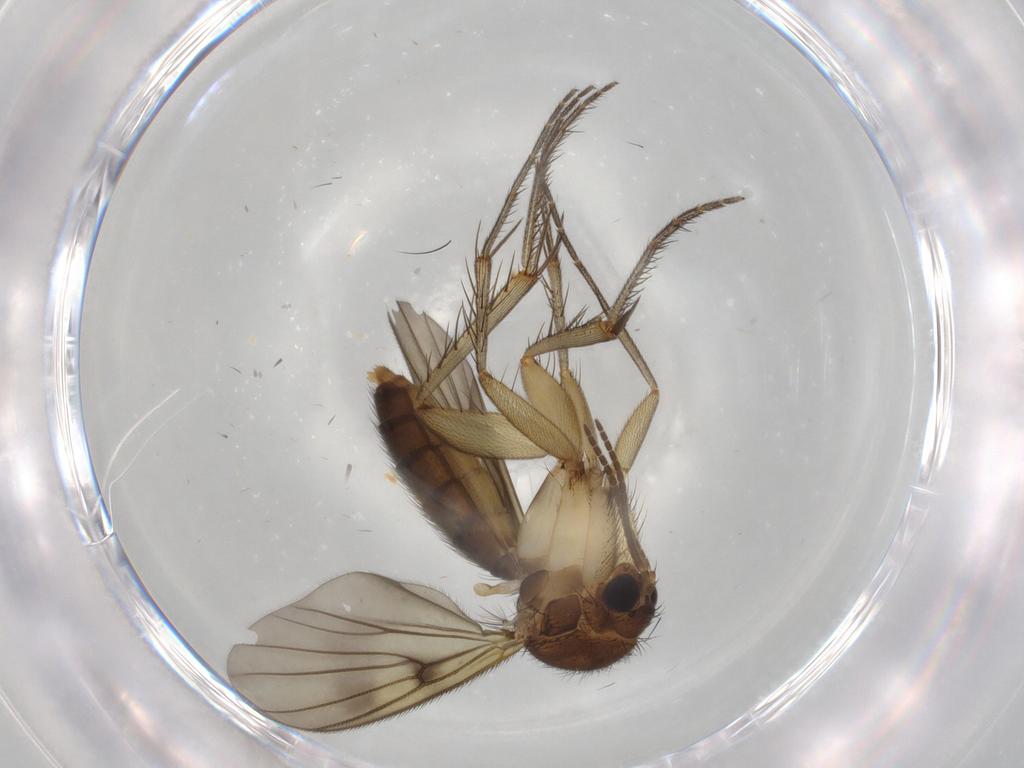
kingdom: Animalia
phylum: Arthropoda
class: Insecta
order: Diptera
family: Mycetophilidae
